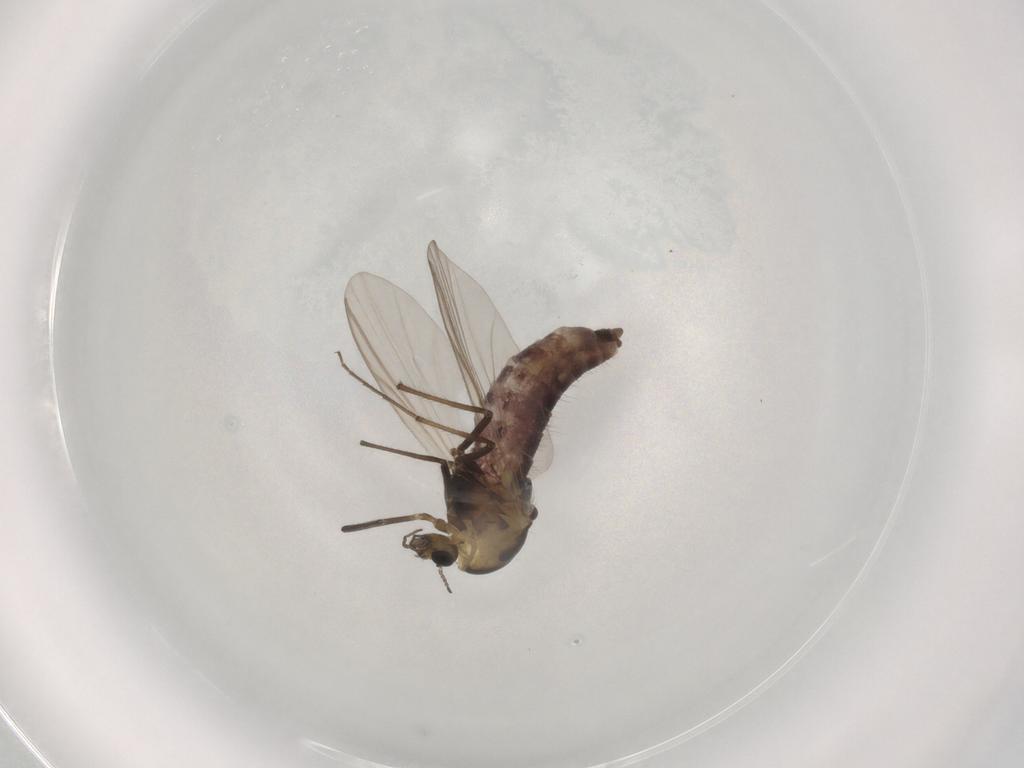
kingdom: Animalia
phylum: Arthropoda
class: Insecta
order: Diptera
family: Chironomidae
